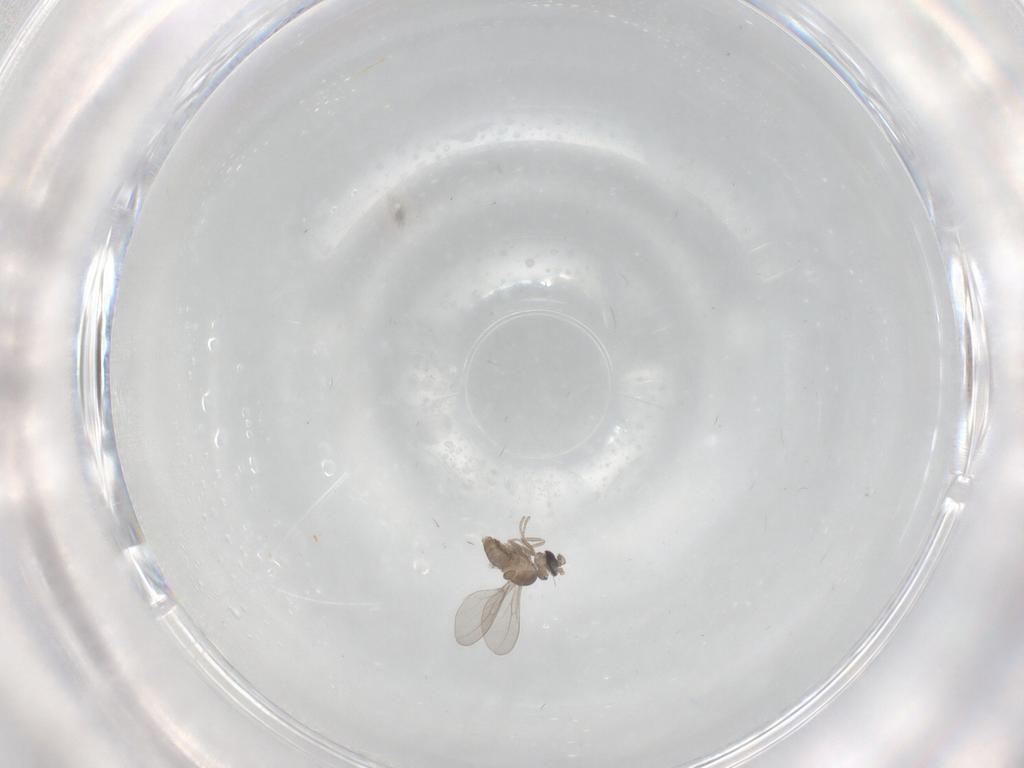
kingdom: Animalia
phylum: Arthropoda
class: Insecta
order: Diptera
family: Cecidomyiidae
